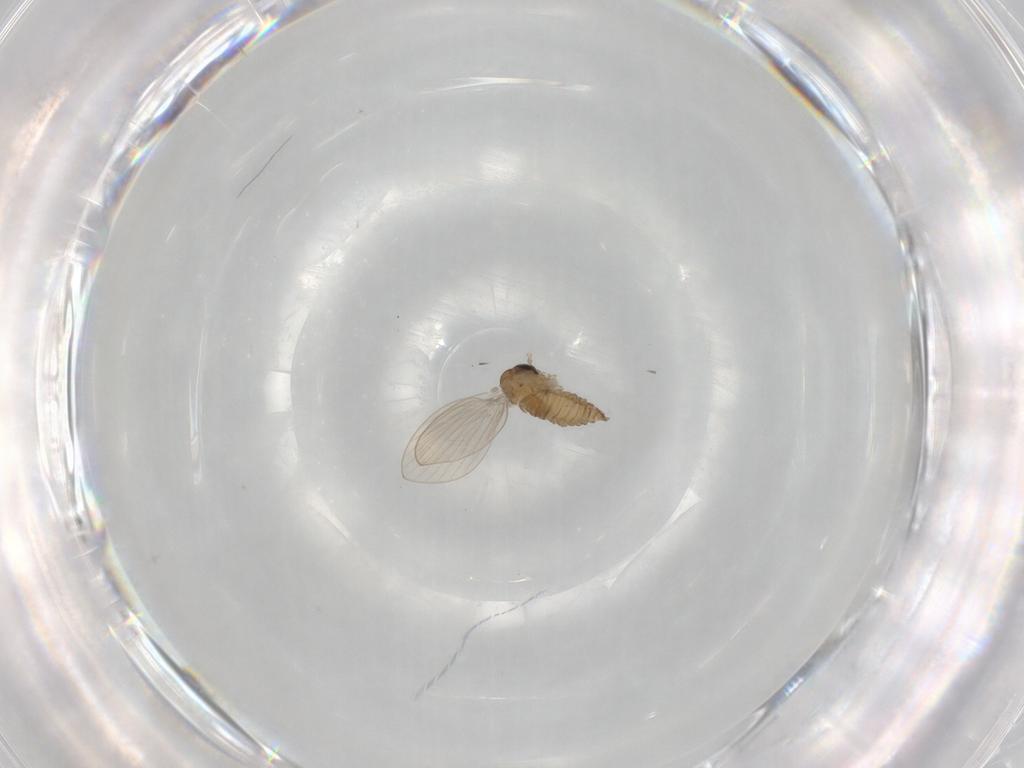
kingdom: Animalia
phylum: Arthropoda
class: Insecta
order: Diptera
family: Psychodidae
